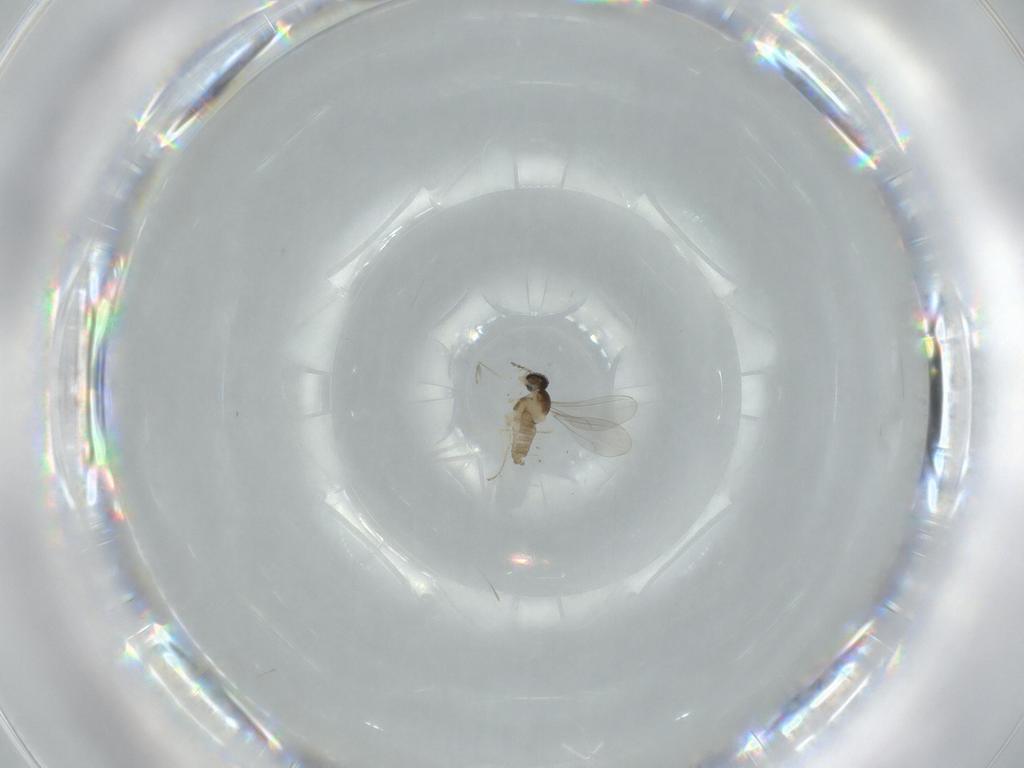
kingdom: Animalia
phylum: Arthropoda
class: Insecta
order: Diptera
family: Cecidomyiidae
